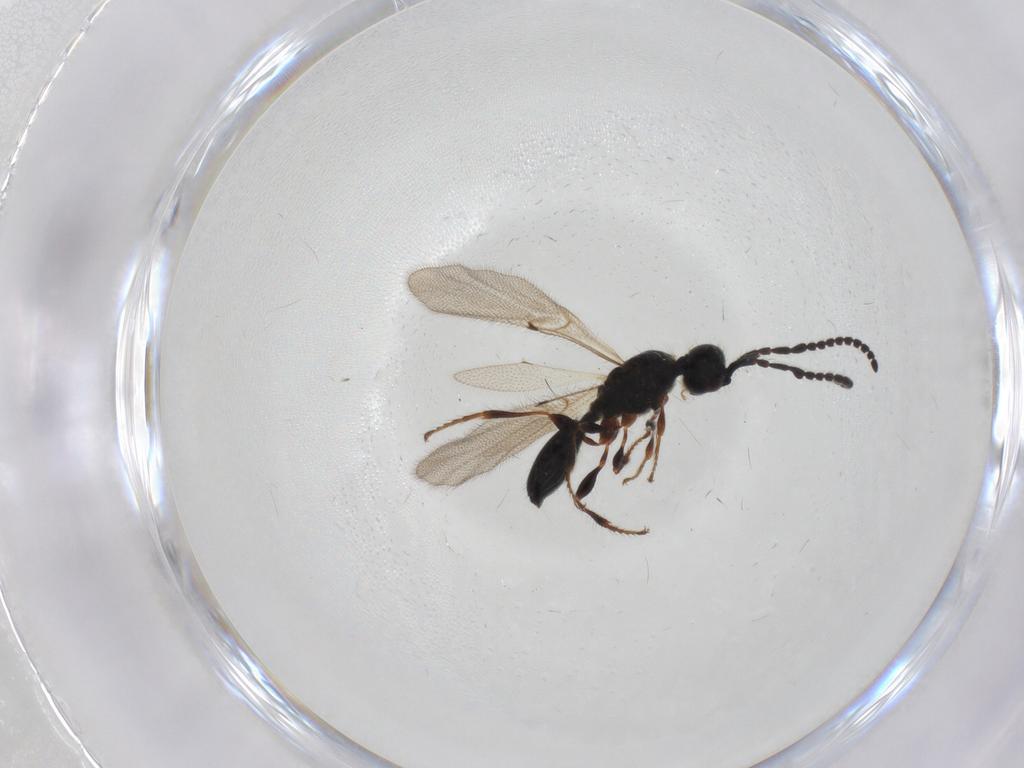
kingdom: Animalia
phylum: Arthropoda
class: Insecta
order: Hymenoptera
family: Diapriidae
